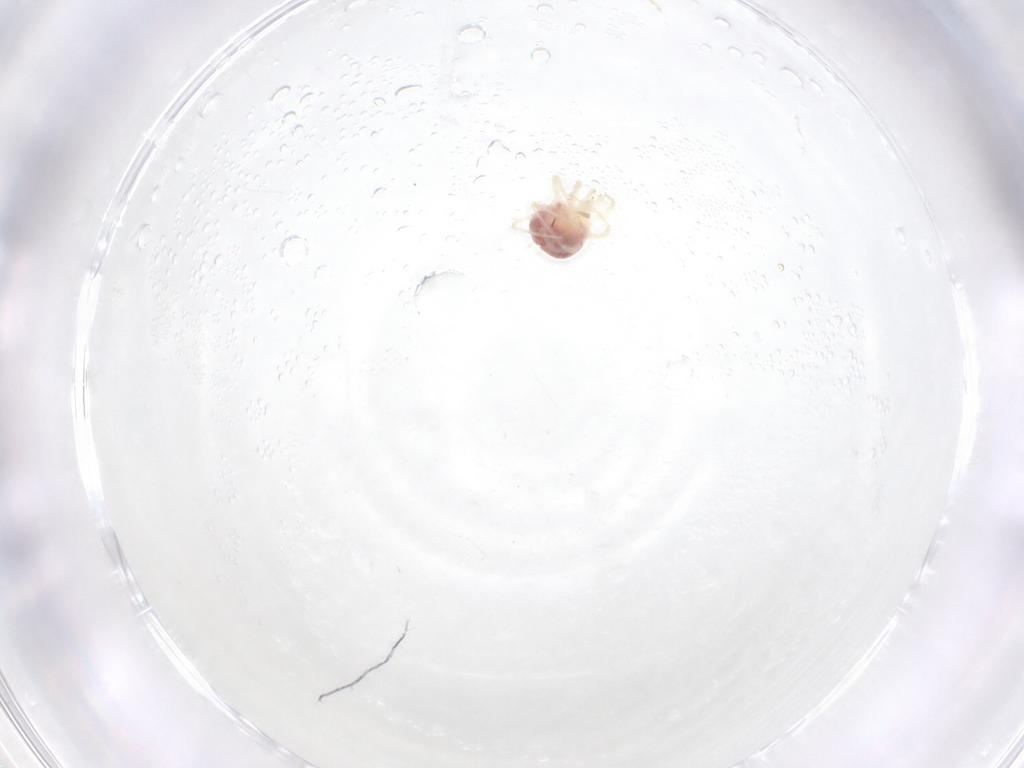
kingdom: Animalia
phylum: Arthropoda
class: Arachnida
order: Trombidiformes
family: Anystidae
